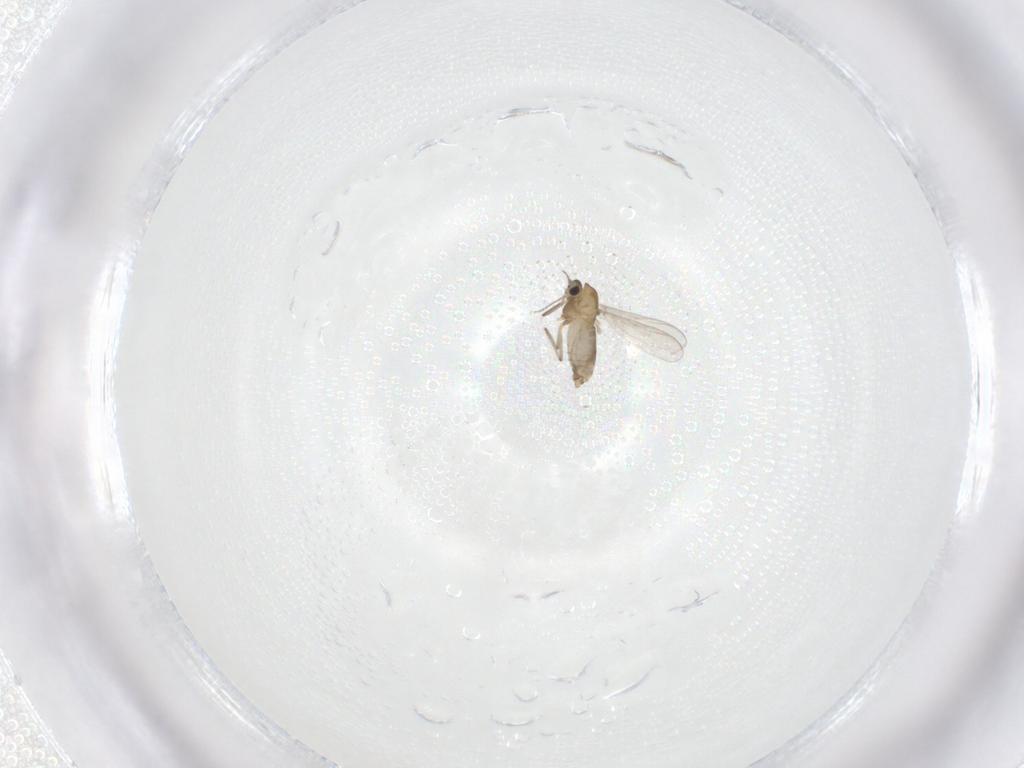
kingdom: Animalia
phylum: Arthropoda
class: Insecta
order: Diptera
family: Chironomidae
